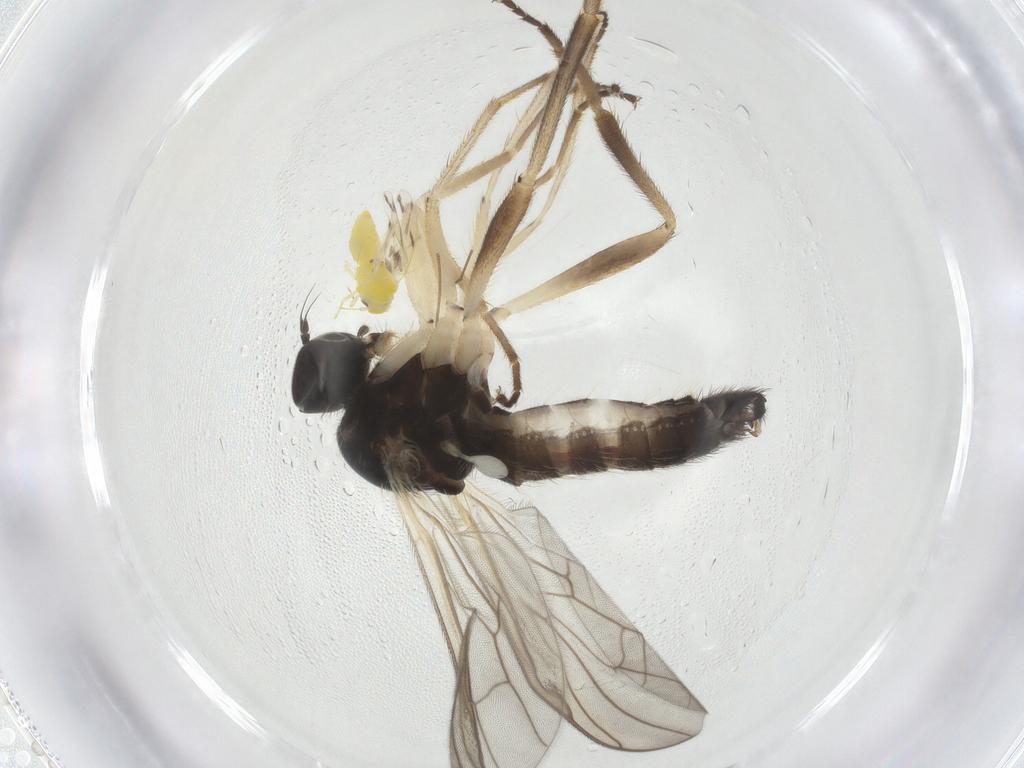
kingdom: Animalia
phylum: Arthropoda
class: Insecta
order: Diptera
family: Chironomidae
